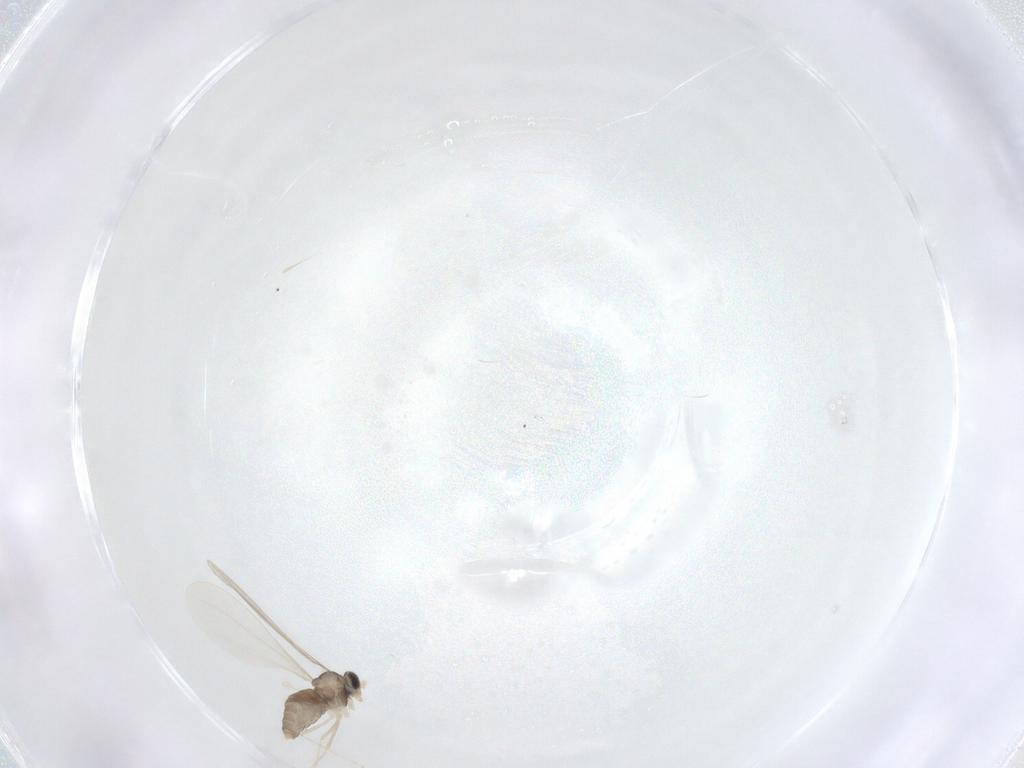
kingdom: Animalia
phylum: Arthropoda
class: Insecta
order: Diptera
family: Cecidomyiidae
